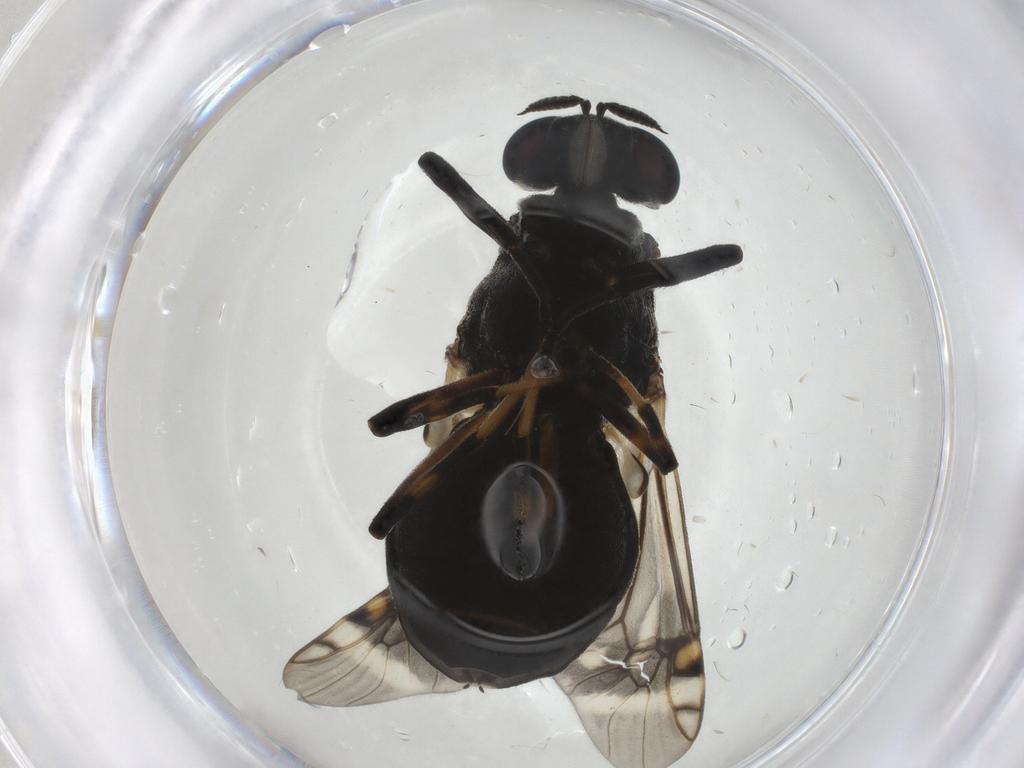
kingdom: Animalia
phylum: Arthropoda
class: Insecta
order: Diptera
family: Stratiomyidae
